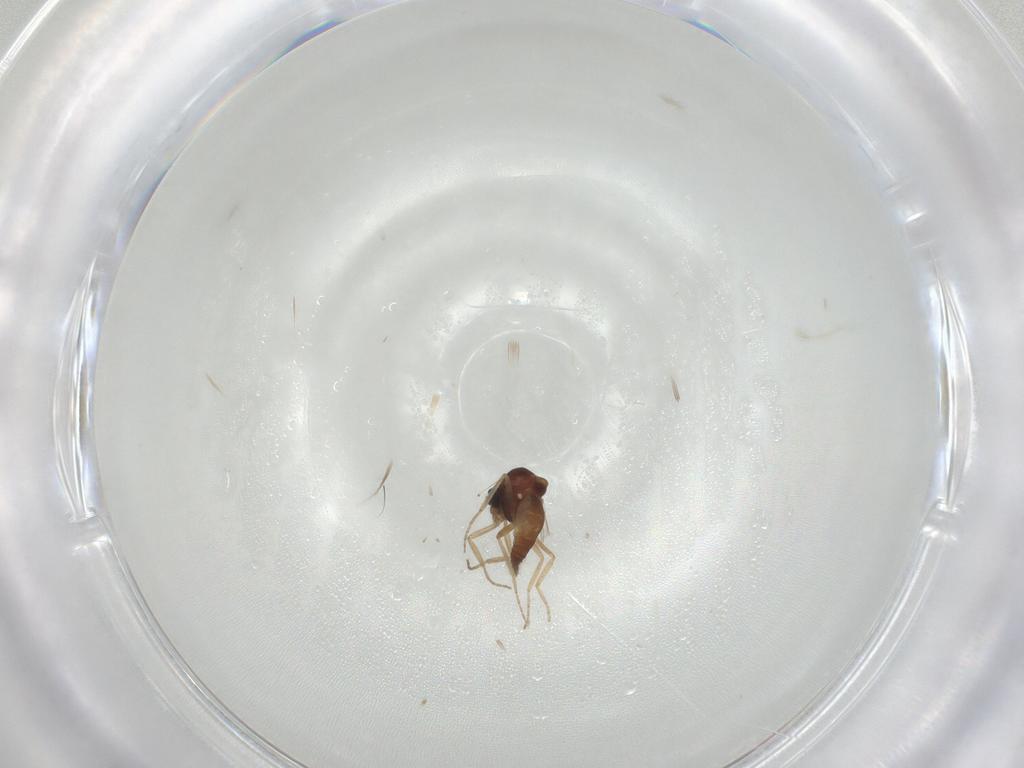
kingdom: Animalia
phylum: Arthropoda
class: Insecta
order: Diptera
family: Ceratopogonidae
